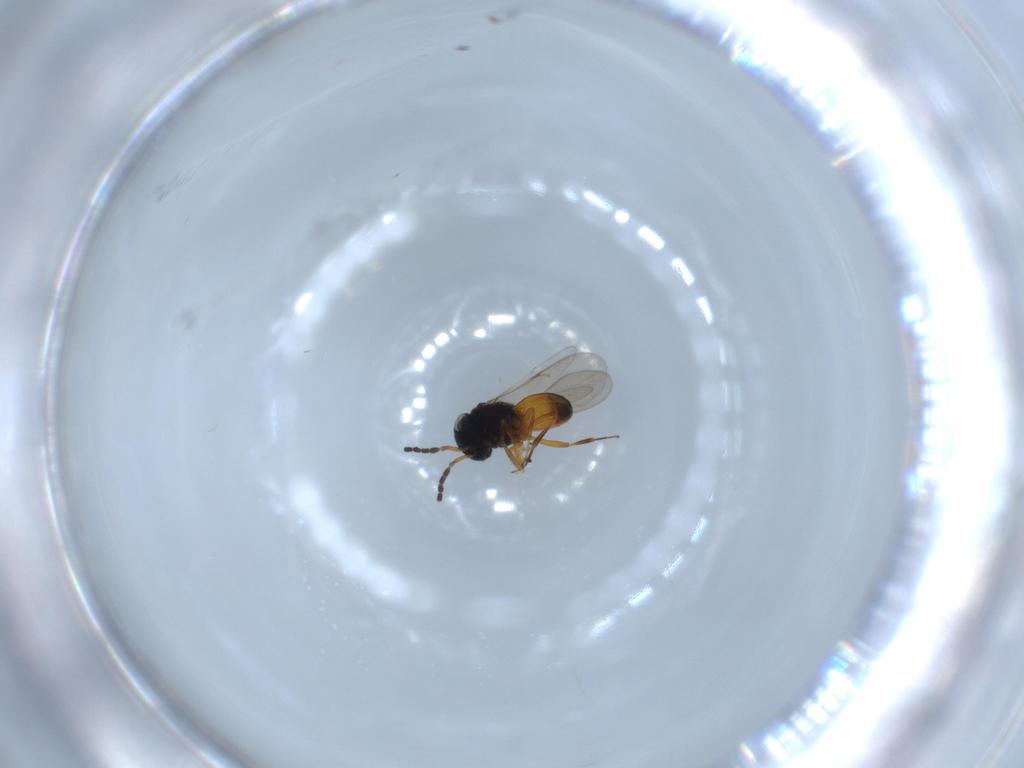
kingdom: Animalia
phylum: Arthropoda
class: Insecta
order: Hymenoptera
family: Scelionidae
